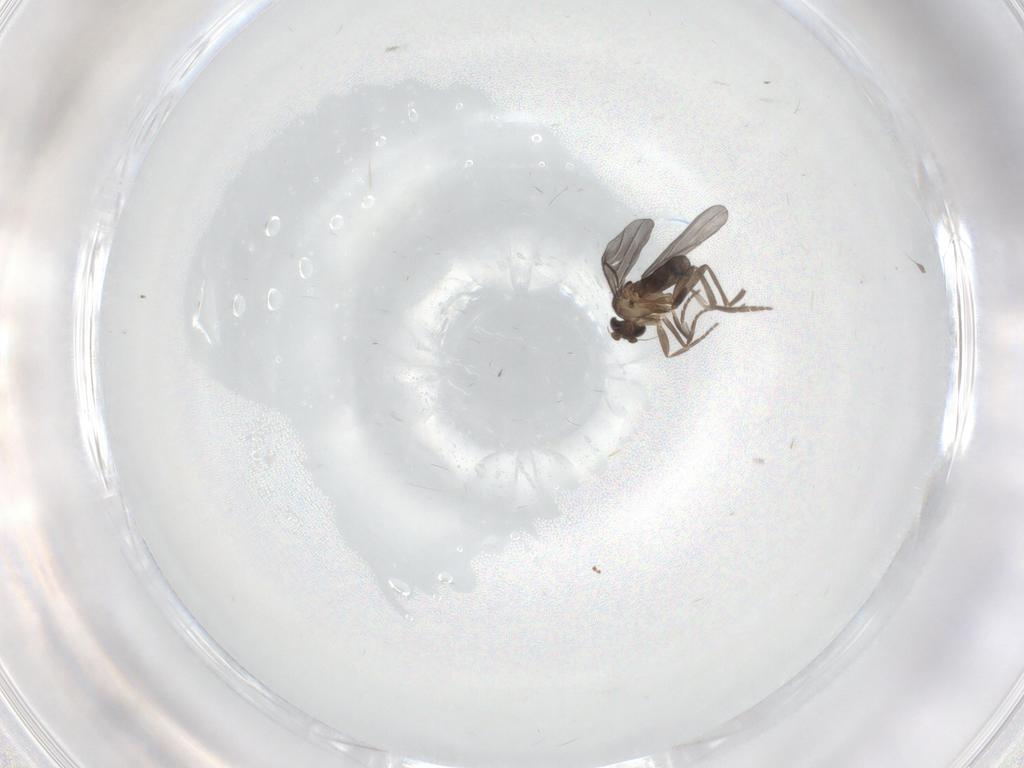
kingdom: Animalia
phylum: Arthropoda
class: Insecta
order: Diptera
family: Phoridae
